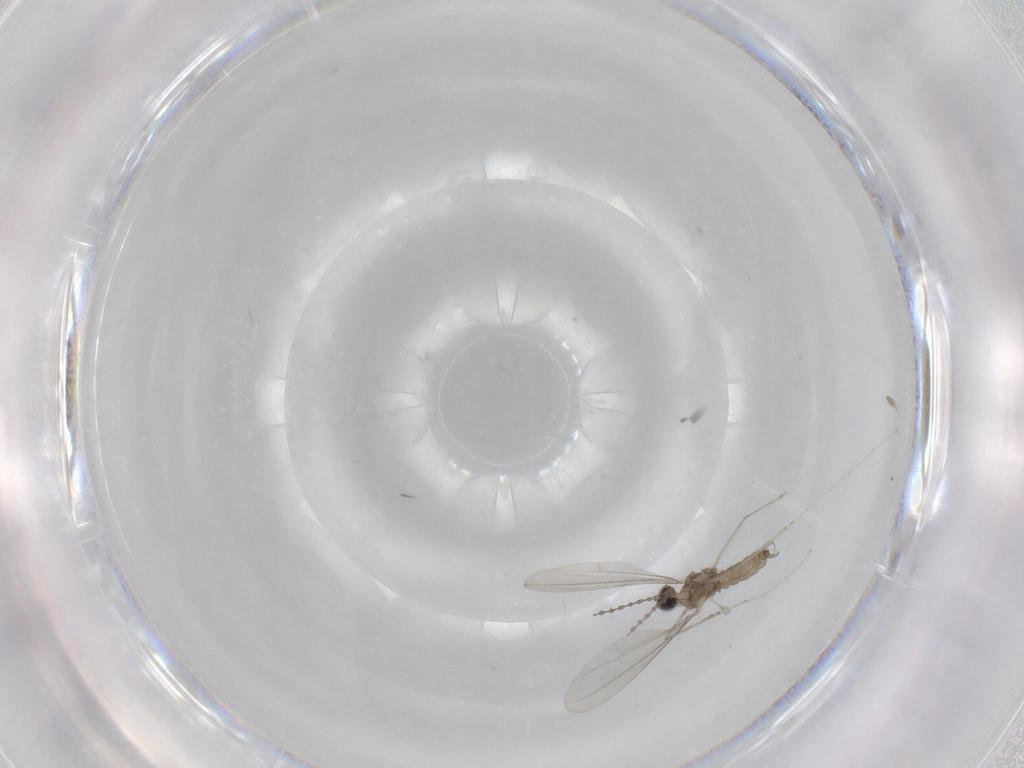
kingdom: Animalia
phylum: Arthropoda
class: Insecta
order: Diptera
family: Cecidomyiidae
